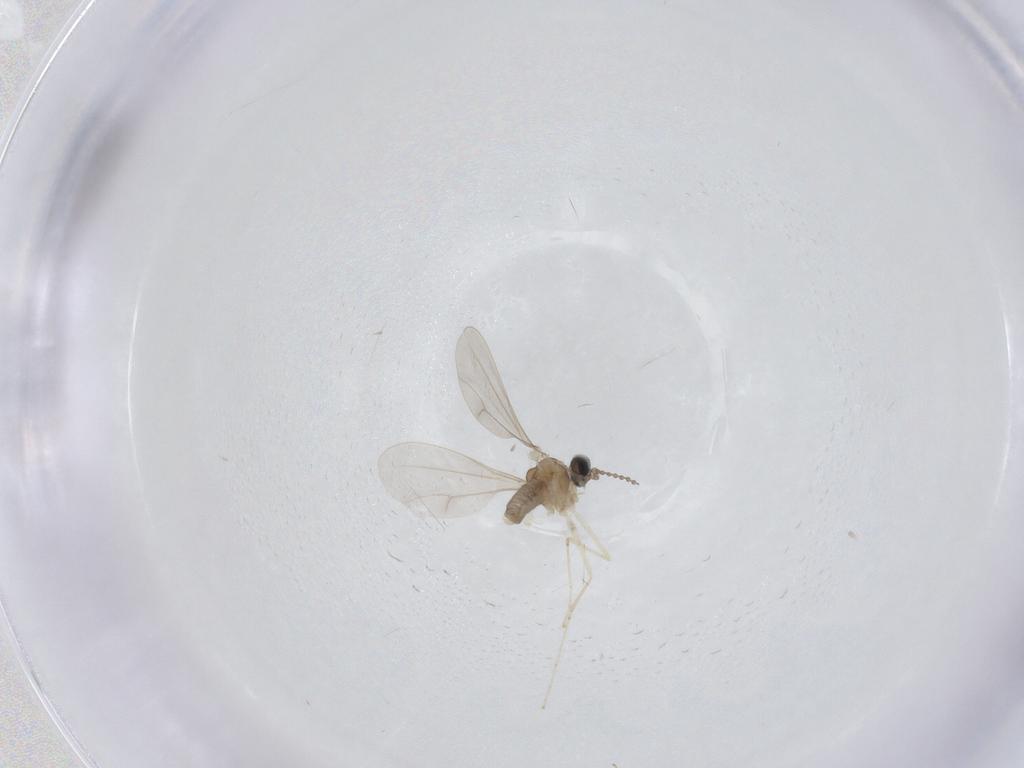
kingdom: Animalia
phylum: Arthropoda
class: Insecta
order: Diptera
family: Cecidomyiidae
